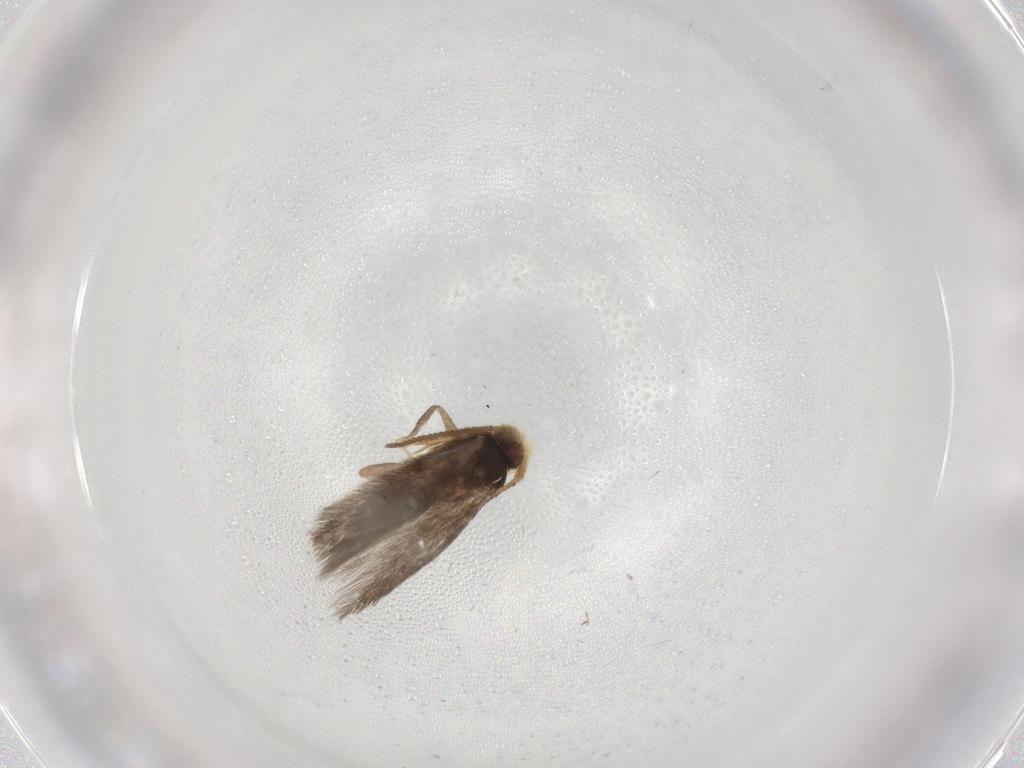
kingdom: Animalia
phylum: Arthropoda
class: Insecta
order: Lepidoptera
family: Nepticulidae
